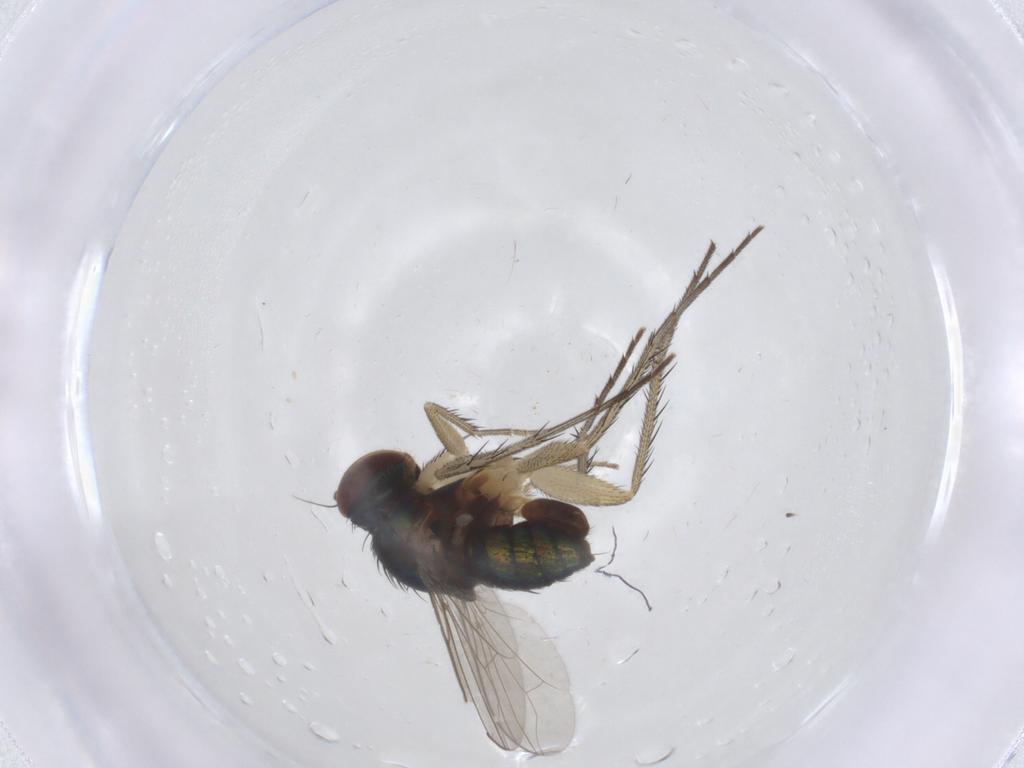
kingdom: Animalia
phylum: Arthropoda
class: Insecta
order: Diptera
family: Dolichopodidae
